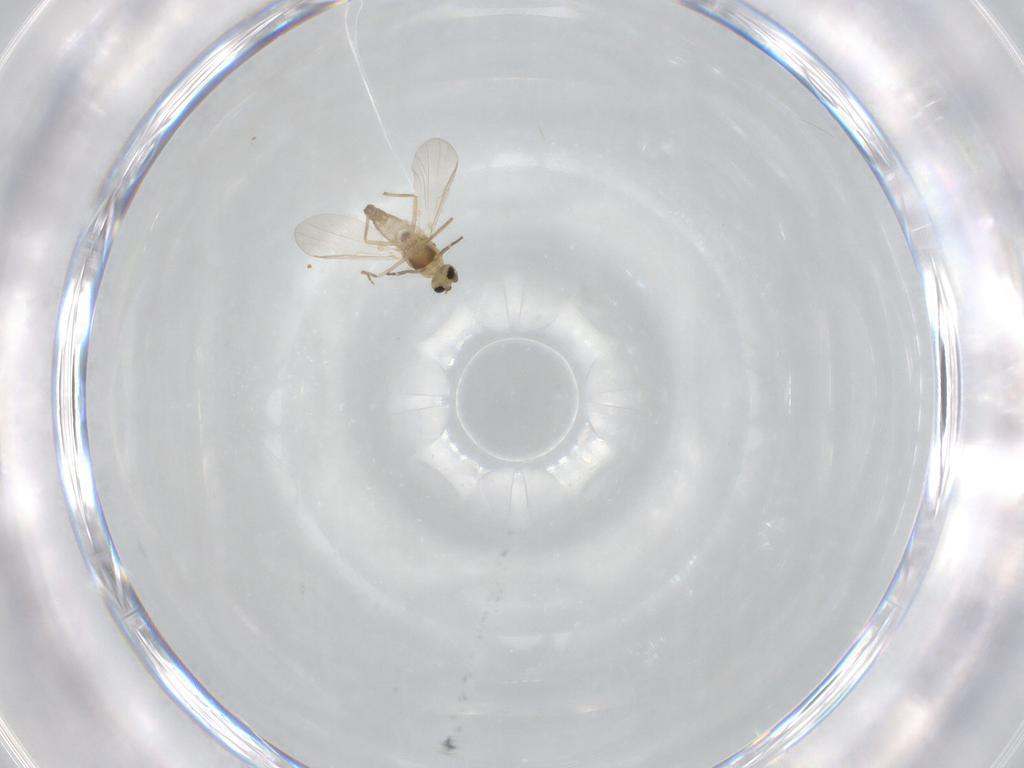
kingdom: Animalia
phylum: Arthropoda
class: Insecta
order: Diptera
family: Chironomidae
